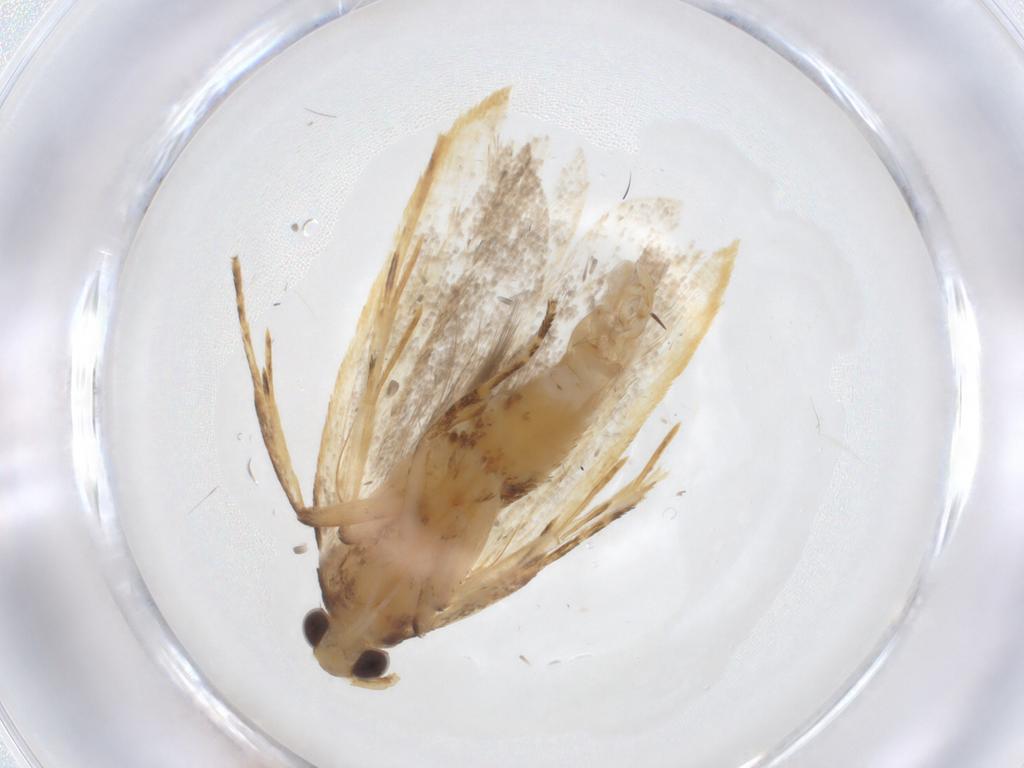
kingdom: Animalia
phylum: Arthropoda
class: Insecta
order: Lepidoptera
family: Lecithoceridae
